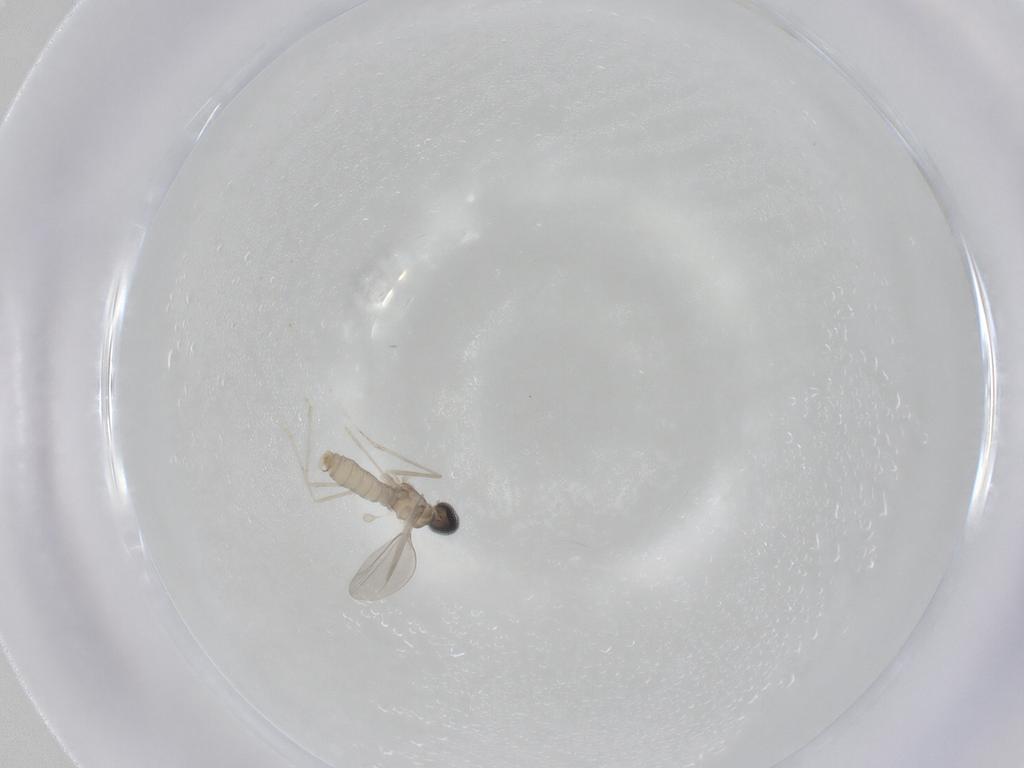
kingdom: Animalia
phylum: Arthropoda
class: Insecta
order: Diptera
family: Cecidomyiidae
